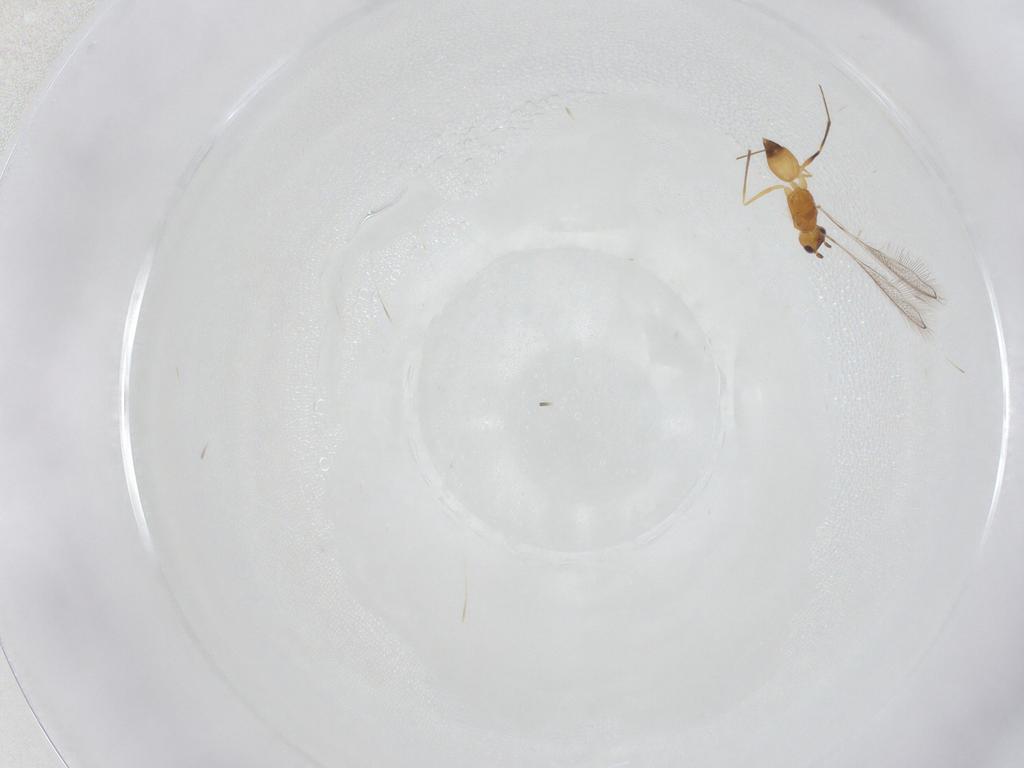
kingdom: Animalia
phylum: Arthropoda
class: Insecta
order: Hymenoptera
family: Mymaridae
